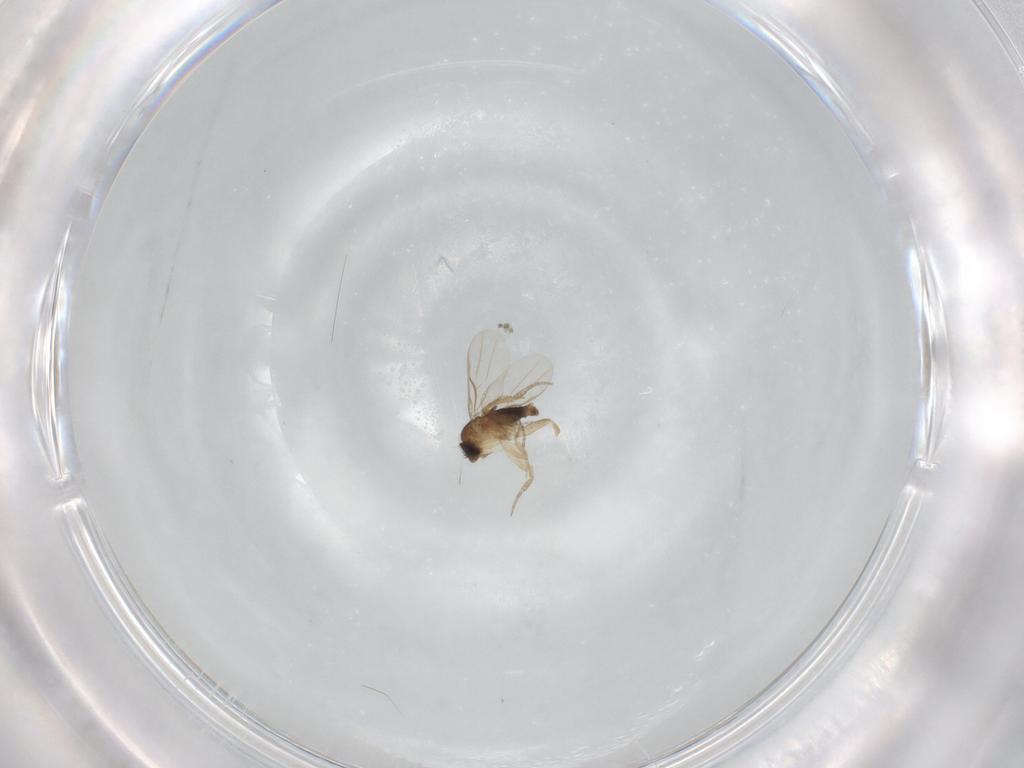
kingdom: Animalia
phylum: Arthropoda
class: Insecta
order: Diptera
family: Phoridae
